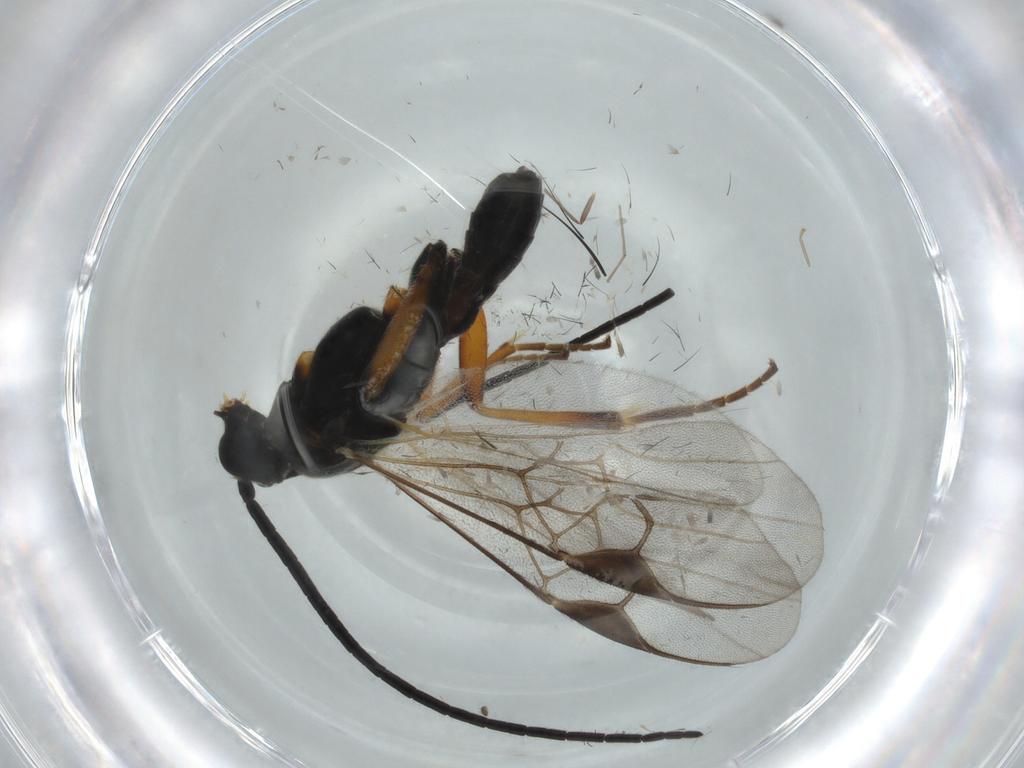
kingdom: Animalia
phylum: Arthropoda
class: Insecta
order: Hymenoptera
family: Braconidae
